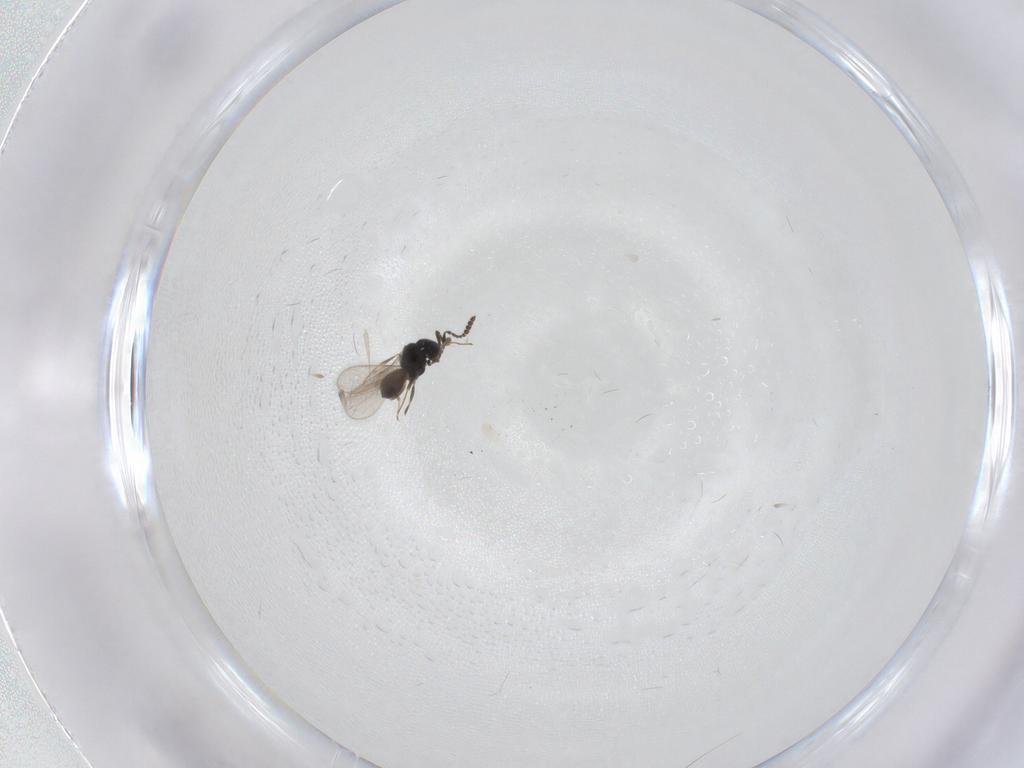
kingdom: Animalia
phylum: Arthropoda
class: Insecta
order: Hymenoptera
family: Scelionidae
